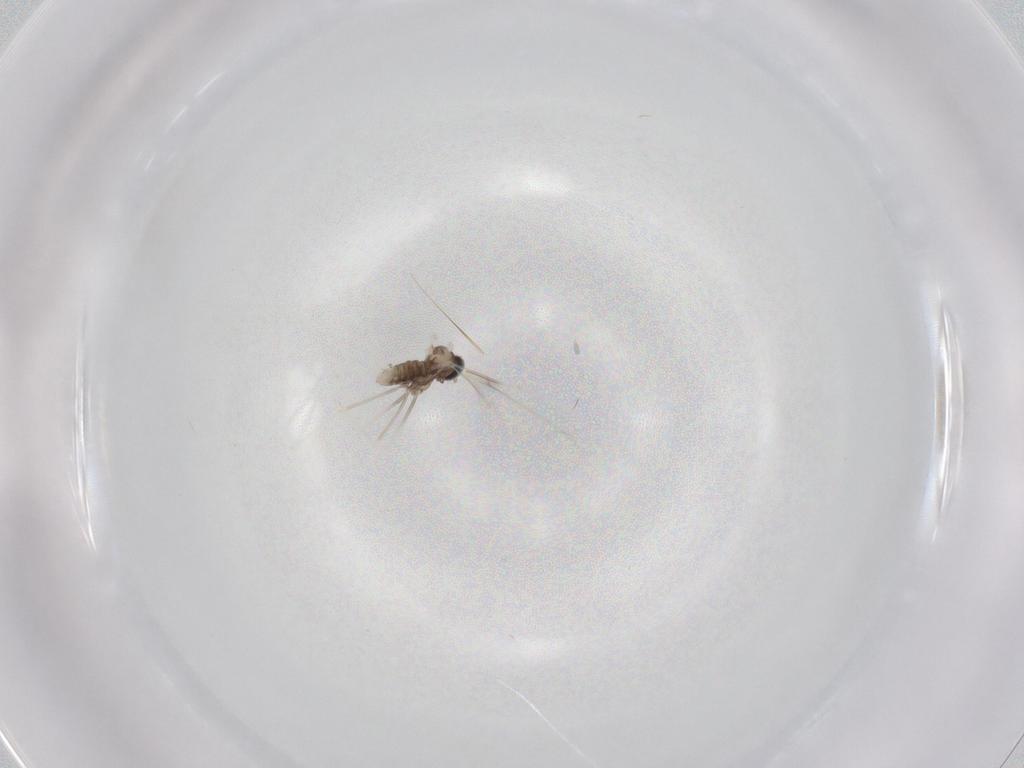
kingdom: Animalia
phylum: Arthropoda
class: Insecta
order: Diptera
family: Cecidomyiidae
